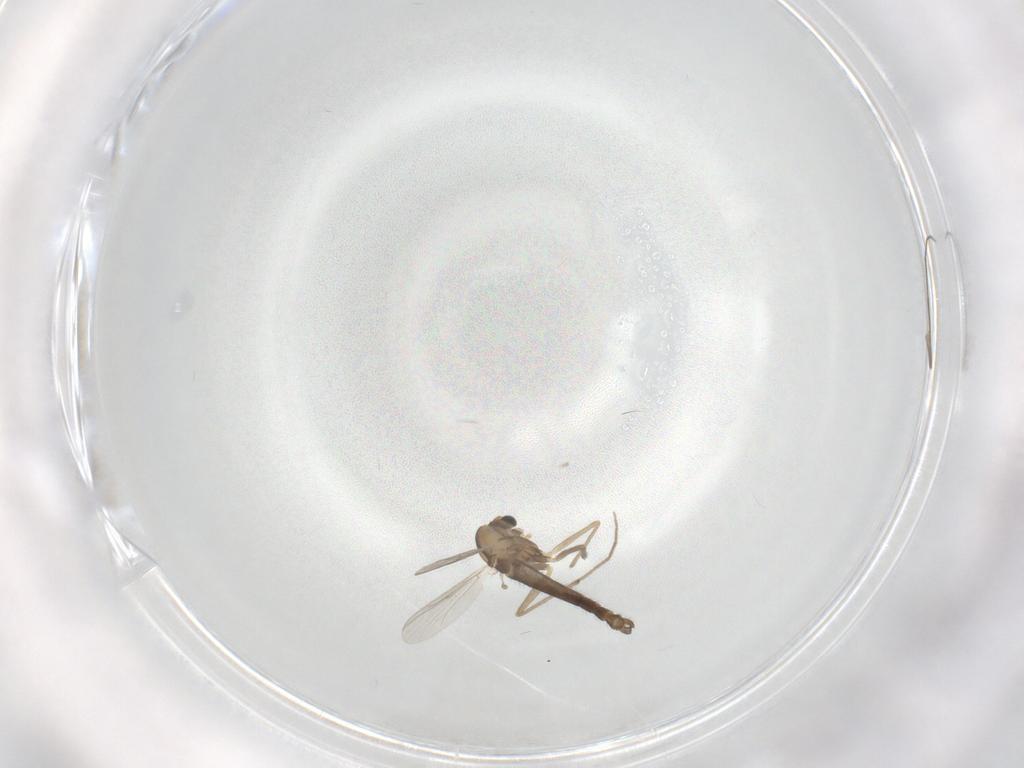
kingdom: Animalia
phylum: Arthropoda
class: Insecta
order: Diptera
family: Chironomidae
